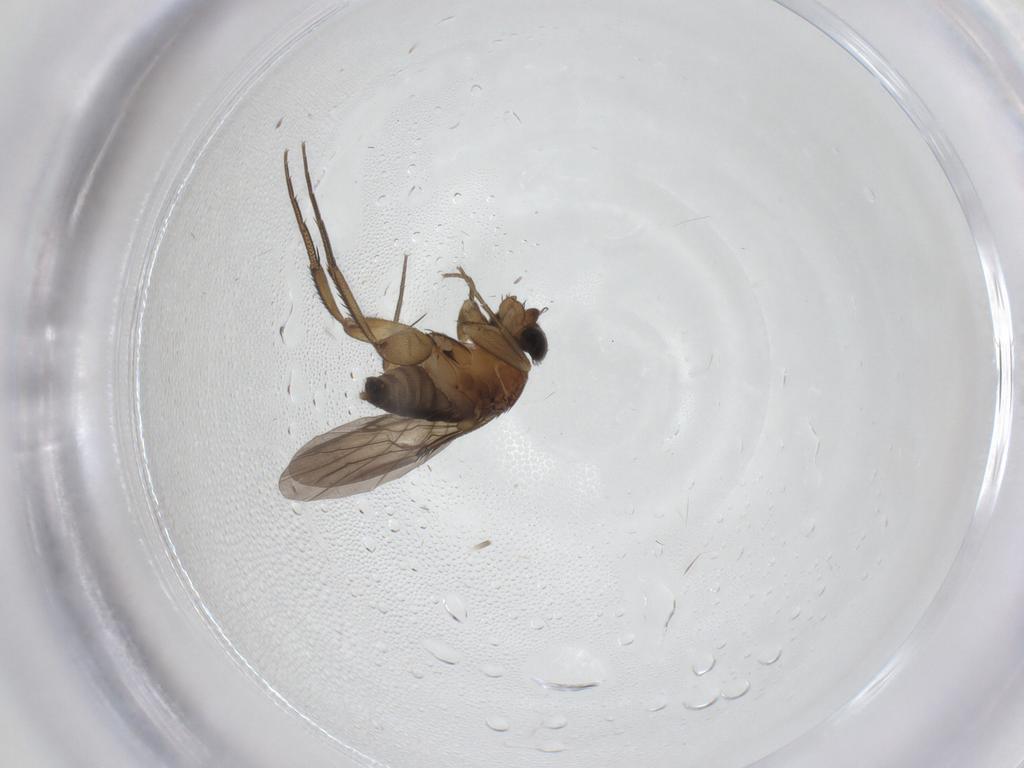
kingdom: Animalia
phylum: Arthropoda
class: Insecta
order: Diptera
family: Phoridae
